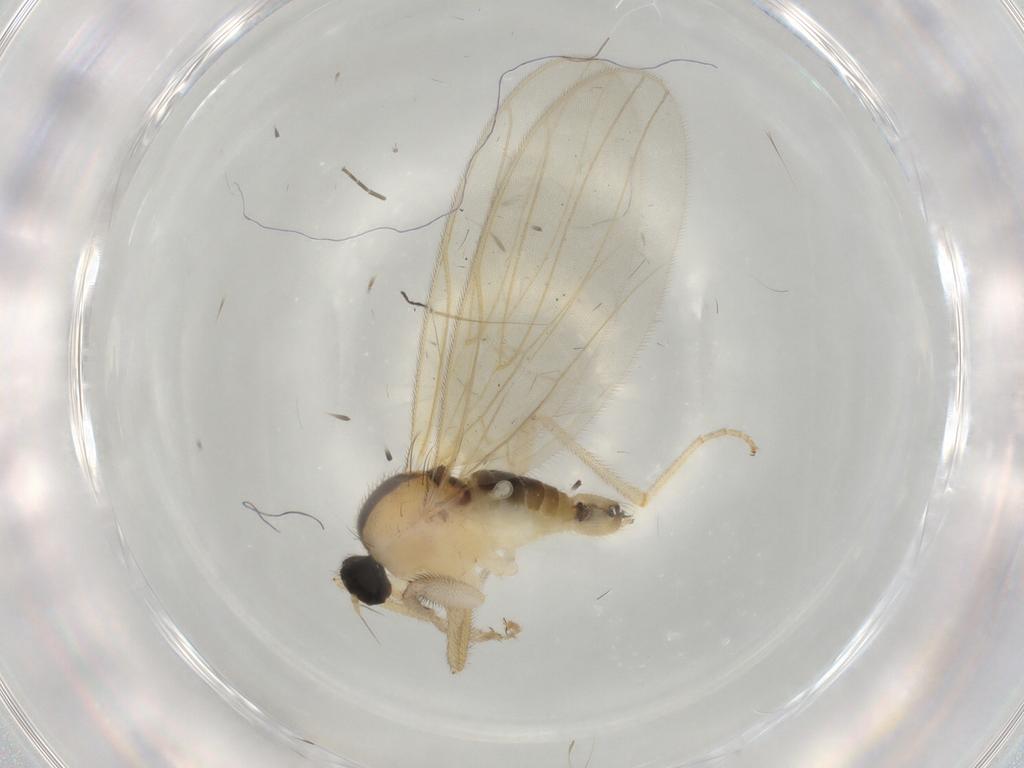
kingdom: Animalia
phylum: Arthropoda
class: Insecta
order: Diptera
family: Hybotidae
